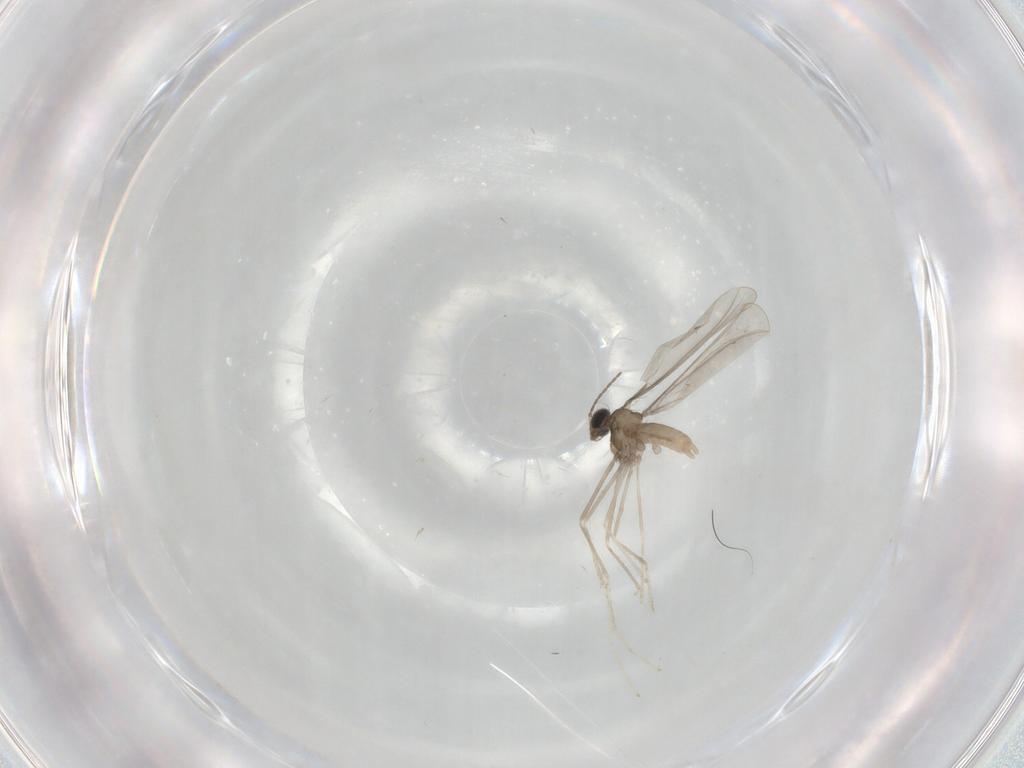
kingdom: Animalia
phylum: Arthropoda
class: Insecta
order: Diptera
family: Cecidomyiidae
